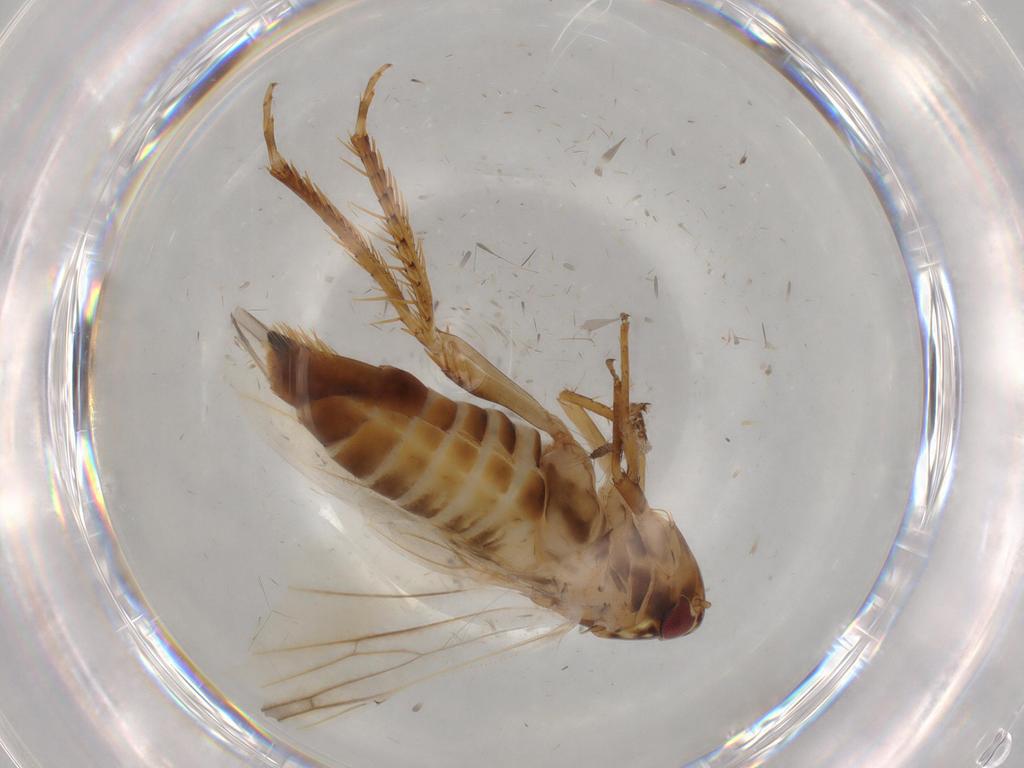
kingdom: Animalia
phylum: Arthropoda
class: Insecta
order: Hemiptera
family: Cicadellidae
